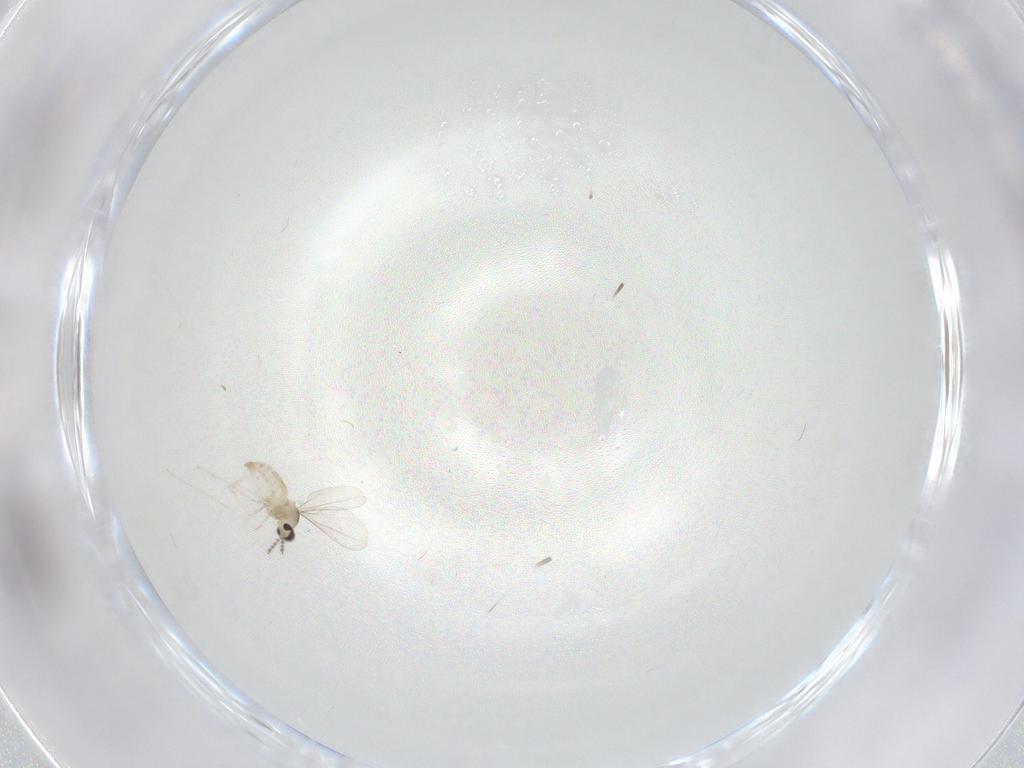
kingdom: Animalia
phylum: Arthropoda
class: Insecta
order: Diptera
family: Cecidomyiidae
